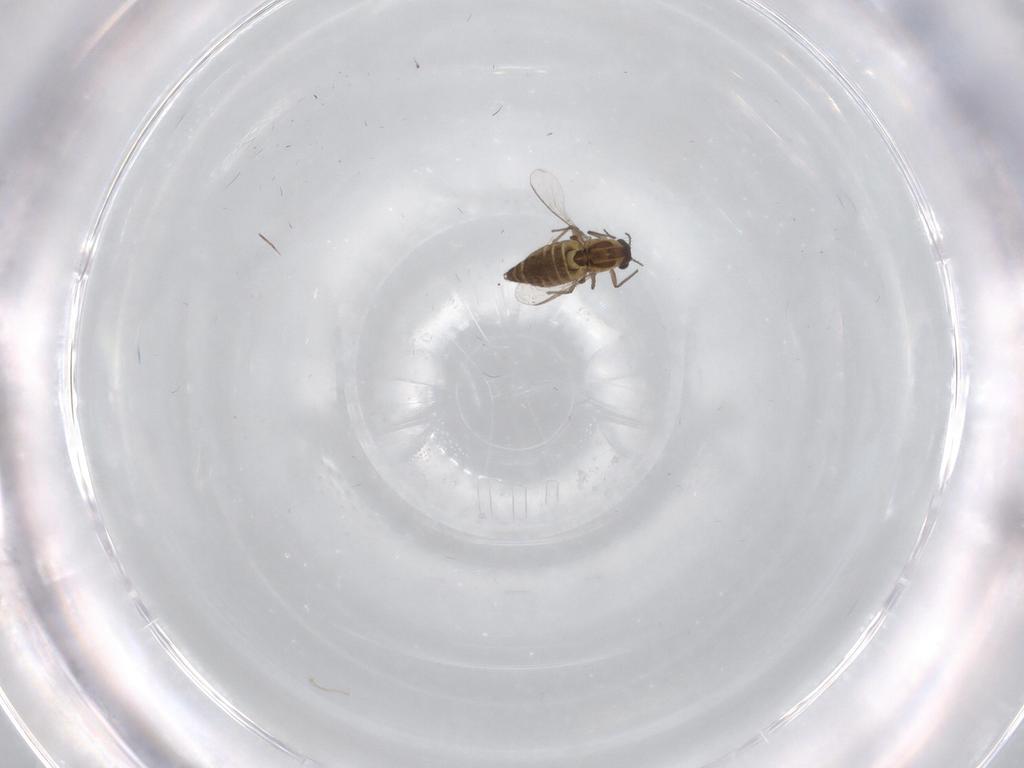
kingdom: Animalia
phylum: Arthropoda
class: Insecta
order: Diptera
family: Chironomidae
